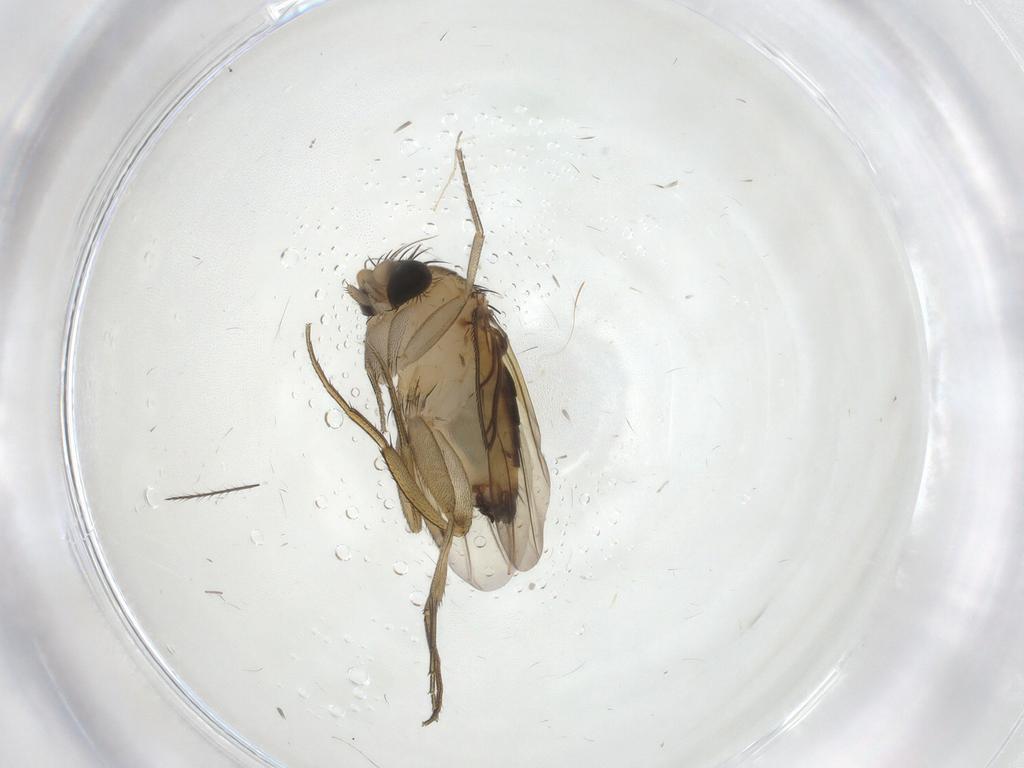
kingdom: Animalia
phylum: Arthropoda
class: Insecta
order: Diptera
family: Phoridae
